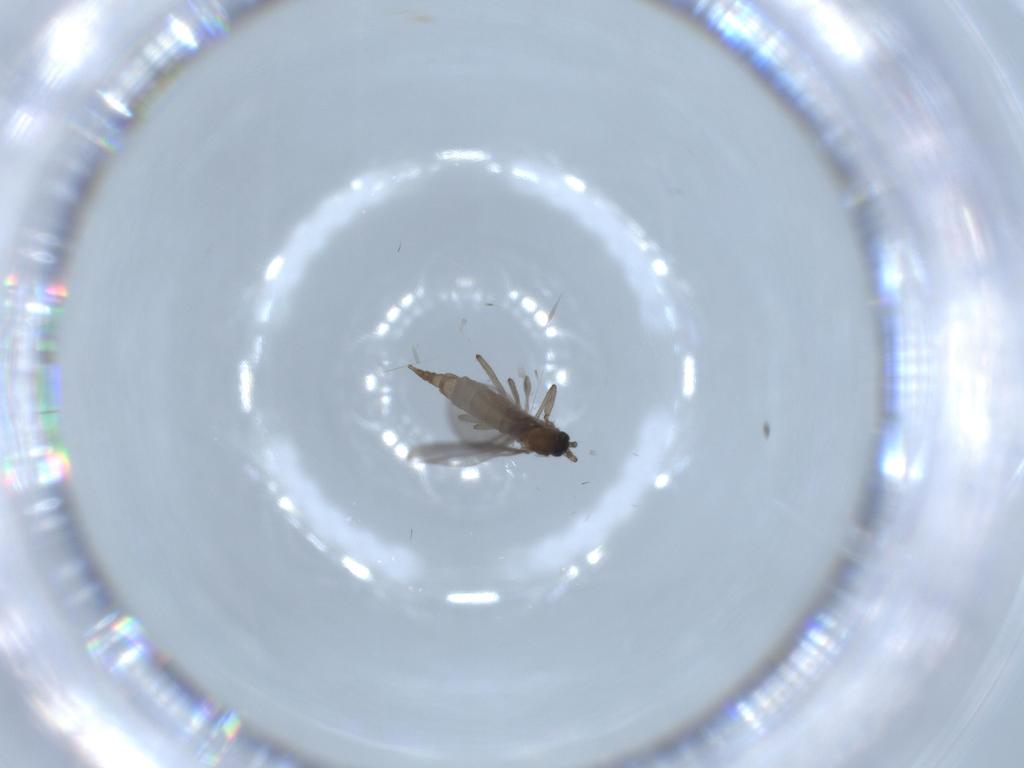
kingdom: Animalia
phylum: Arthropoda
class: Insecta
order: Diptera
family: Sciaridae
